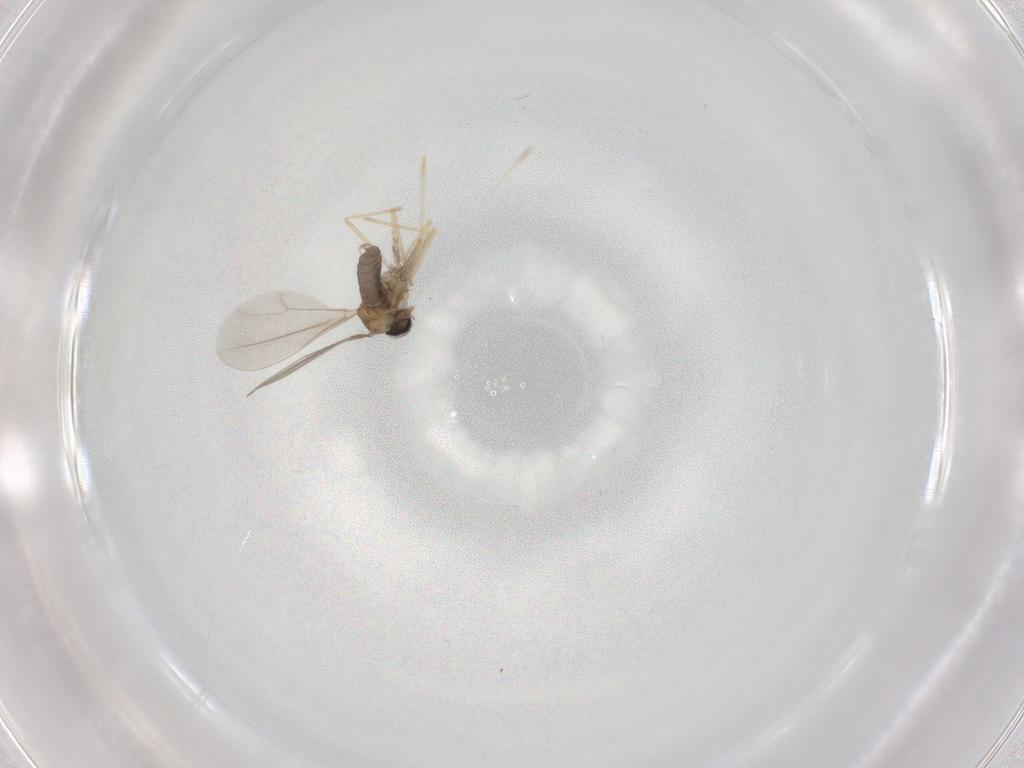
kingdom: Animalia
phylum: Arthropoda
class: Insecta
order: Diptera
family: Cecidomyiidae
